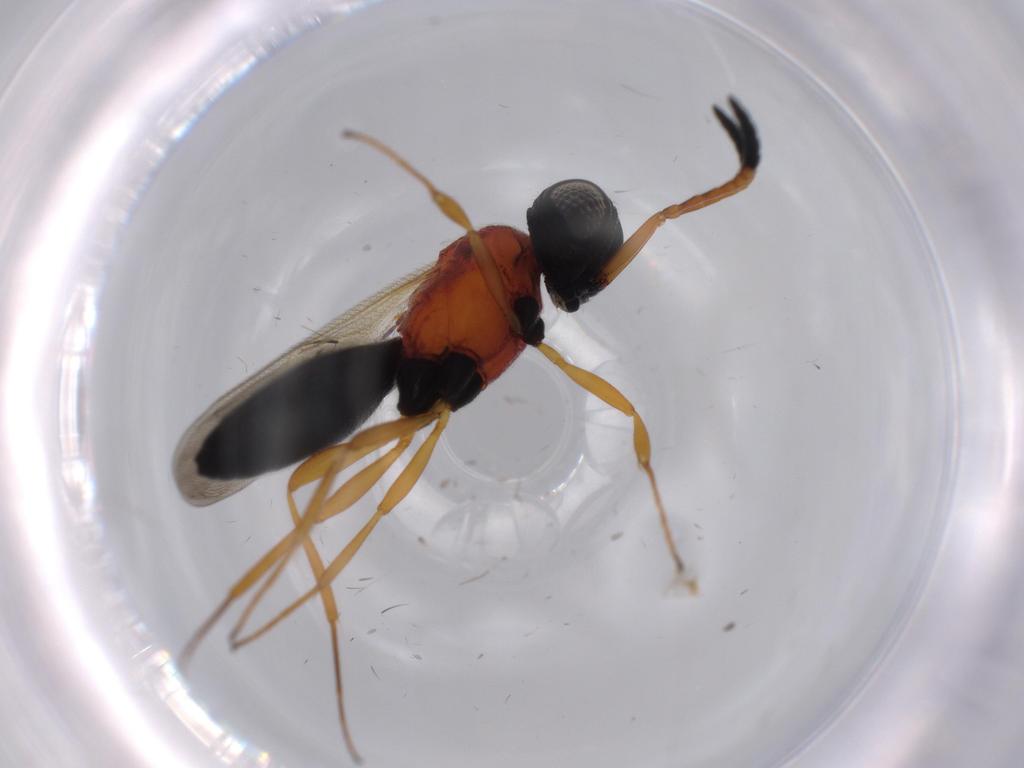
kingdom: Animalia
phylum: Arthropoda
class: Insecta
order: Hymenoptera
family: Scelionidae
